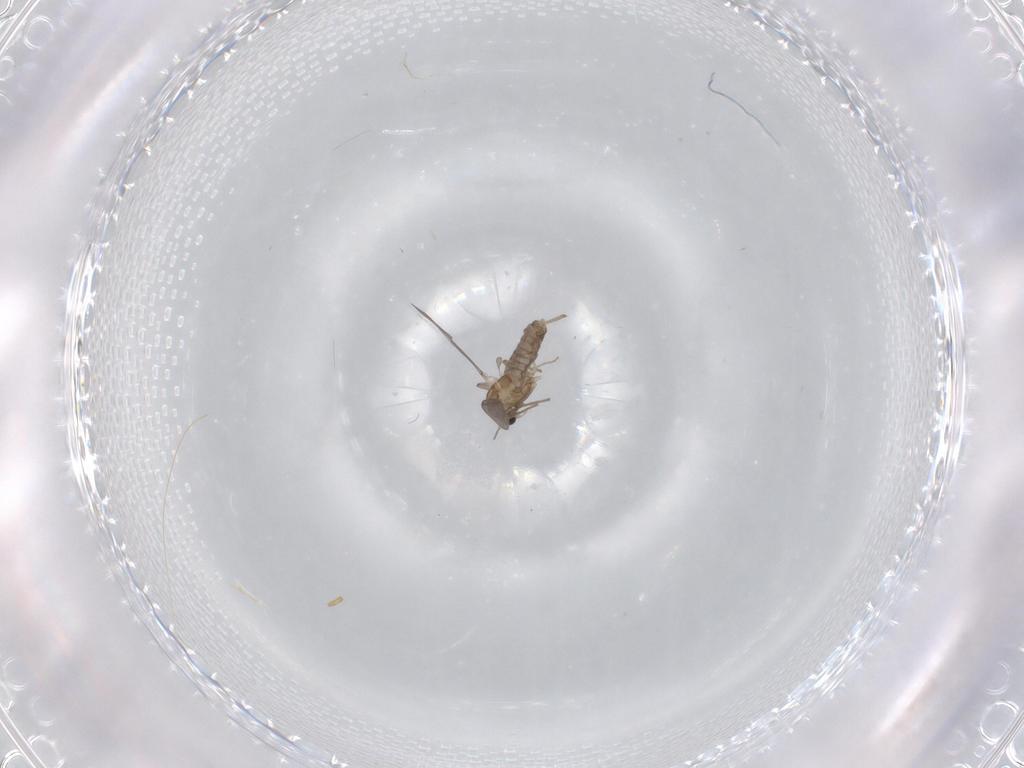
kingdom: Animalia
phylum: Arthropoda
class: Insecta
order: Diptera
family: Chironomidae
